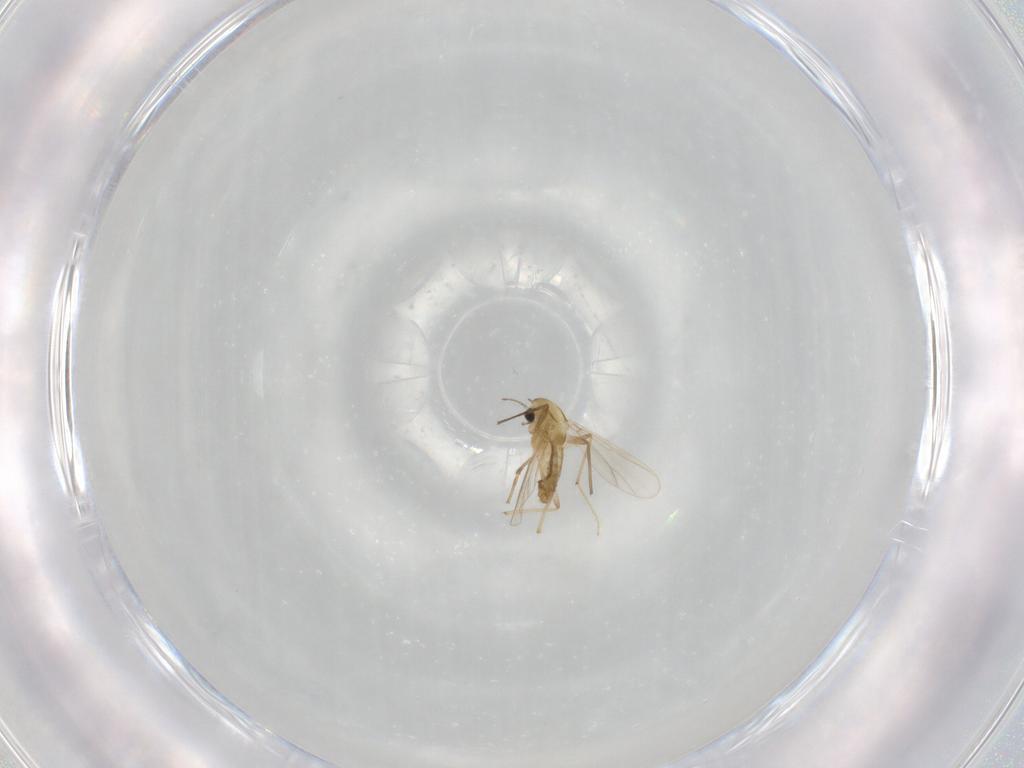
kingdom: Animalia
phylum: Arthropoda
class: Insecta
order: Diptera
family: Chironomidae
